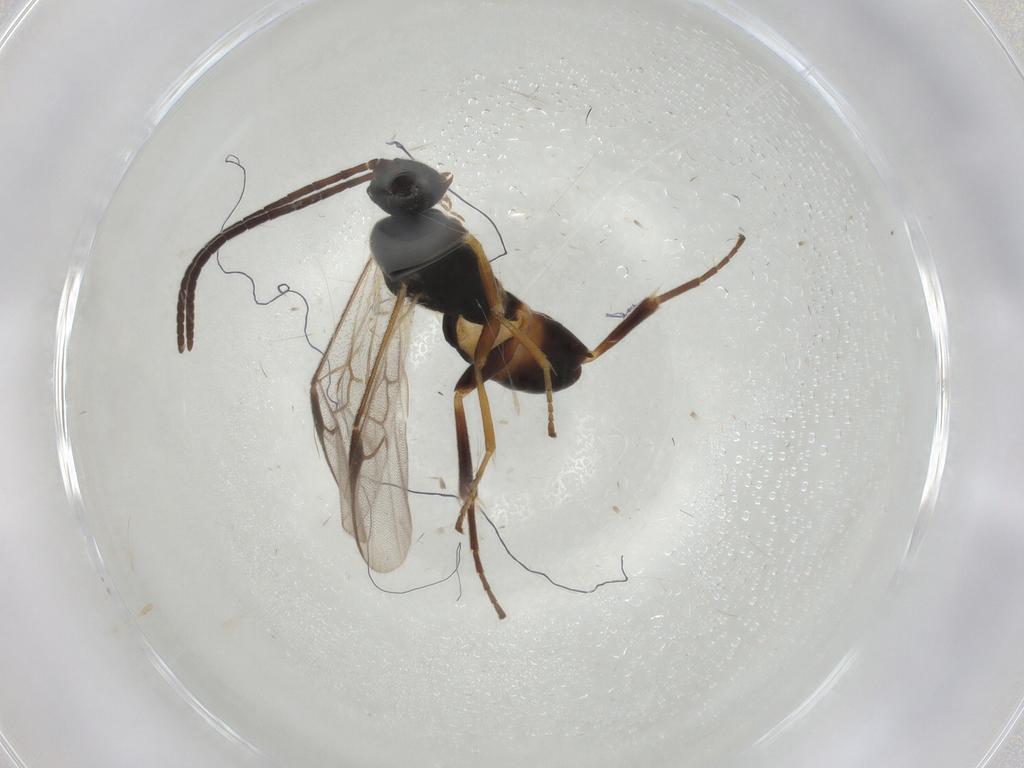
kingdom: Animalia
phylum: Arthropoda
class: Insecta
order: Hymenoptera
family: Braconidae
